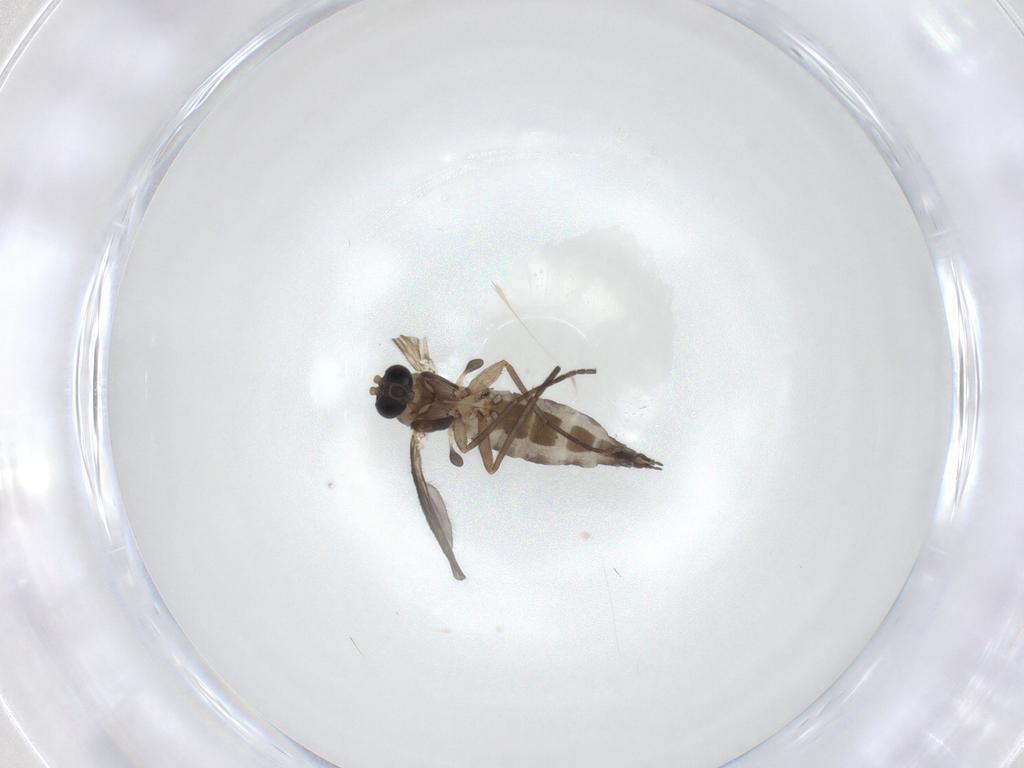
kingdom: Animalia
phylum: Arthropoda
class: Insecta
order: Diptera
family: Sciaridae
